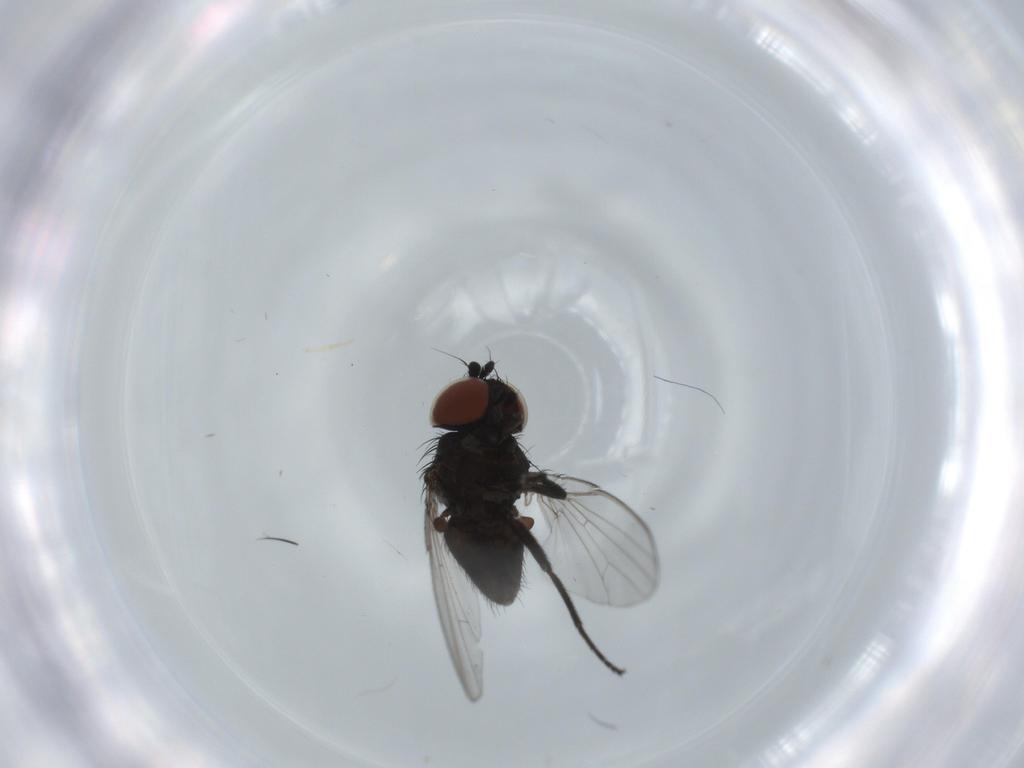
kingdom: Animalia
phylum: Arthropoda
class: Insecta
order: Diptera
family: Milichiidae
